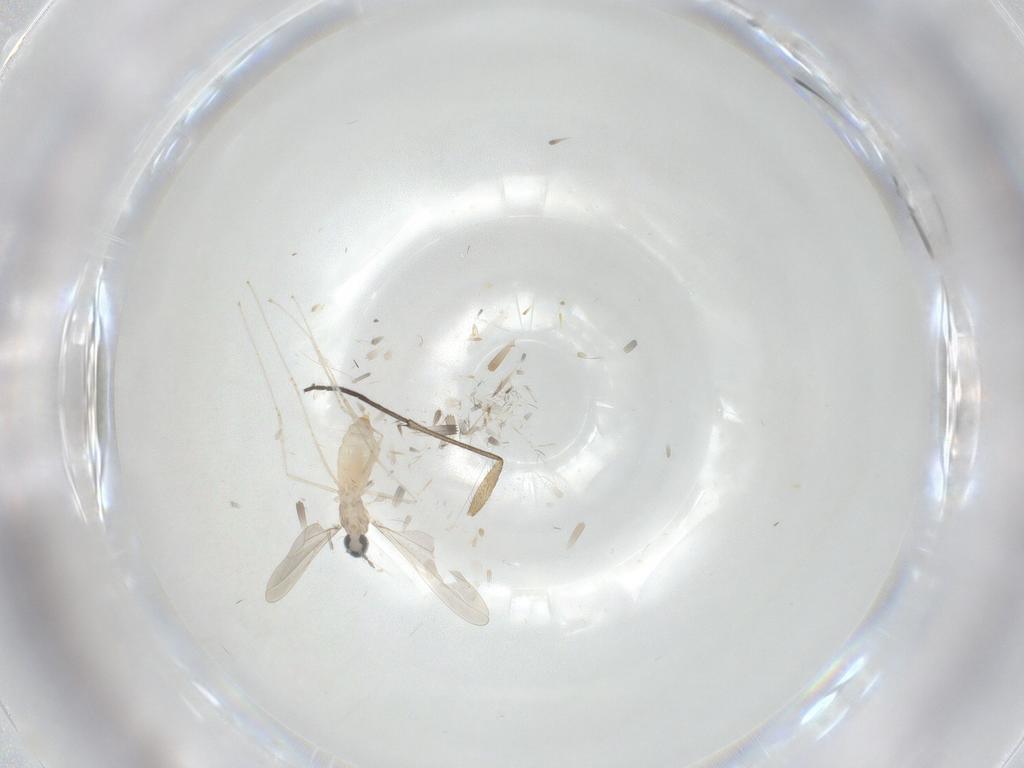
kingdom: Animalia
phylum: Arthropoda
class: Insecta
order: Diptera
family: Cecidomyiidae
